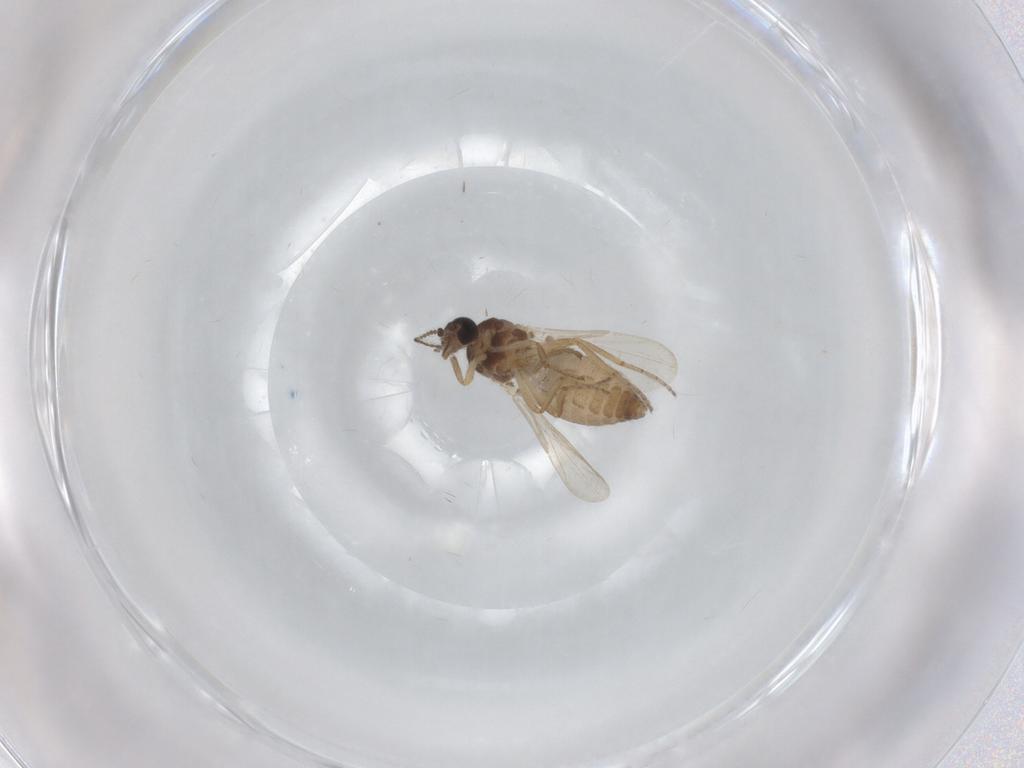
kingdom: Animalia
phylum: Arthropoda
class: Insecta
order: Diptera
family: Ceratopogonidae
